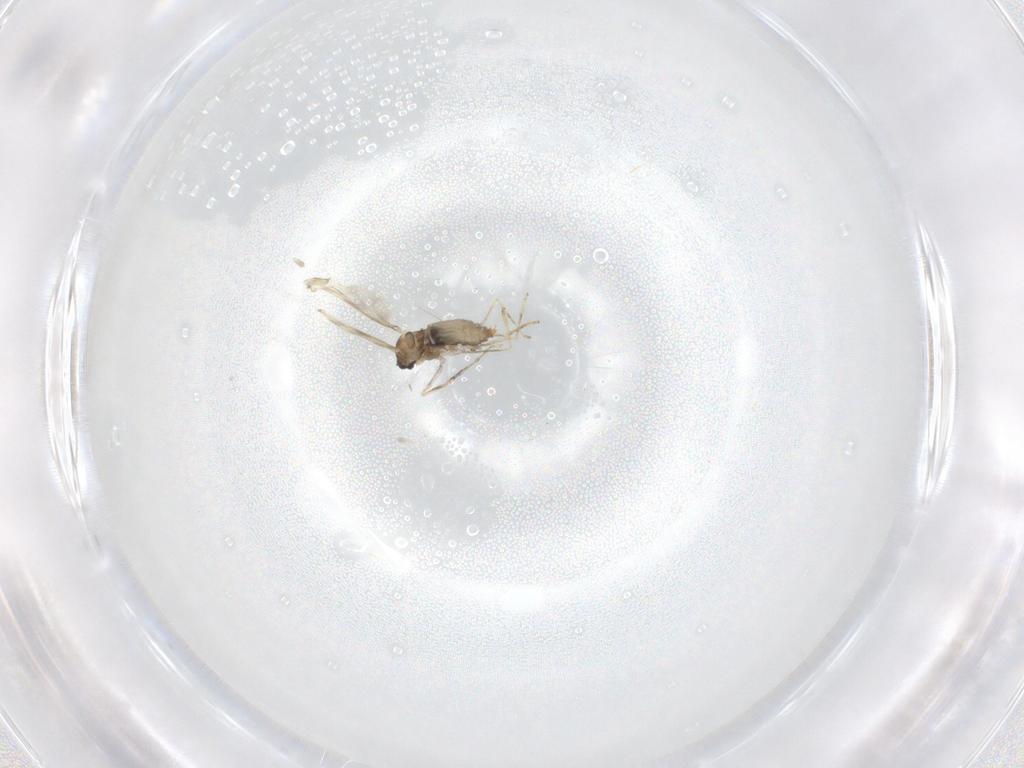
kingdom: Animalia
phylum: Arthropoda
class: Insecta
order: Diptera
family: Cecidomyiidae
